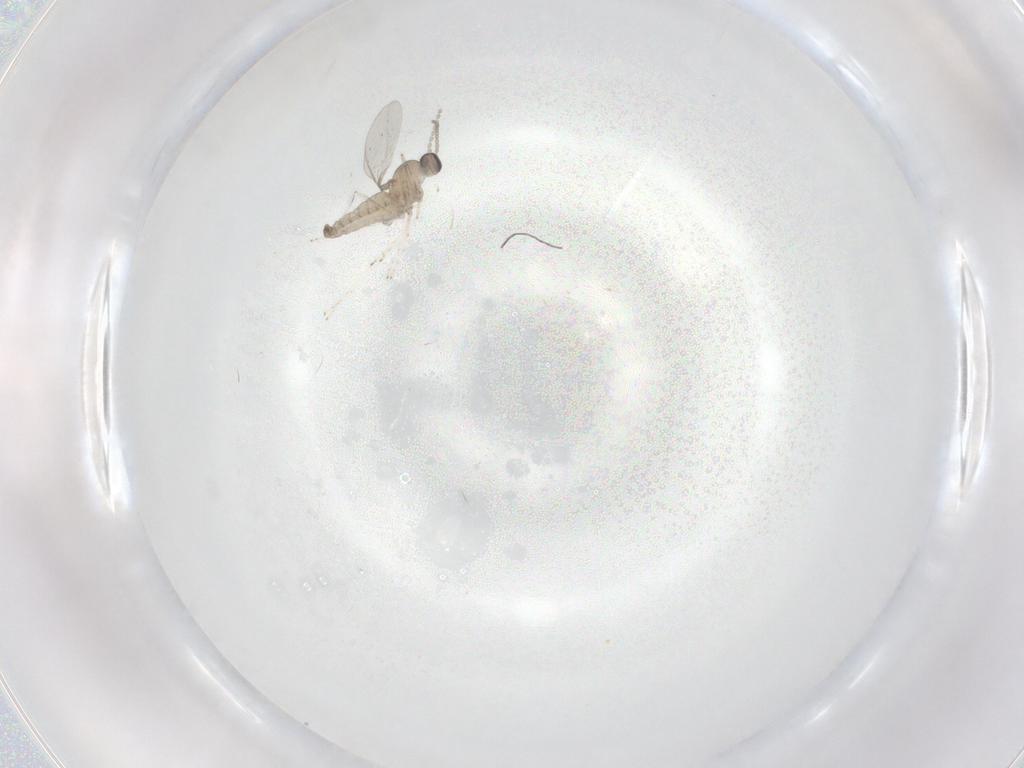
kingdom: Animalia
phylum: Arthropoda
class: Insecta
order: Diptera
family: Cecidomyiidae
